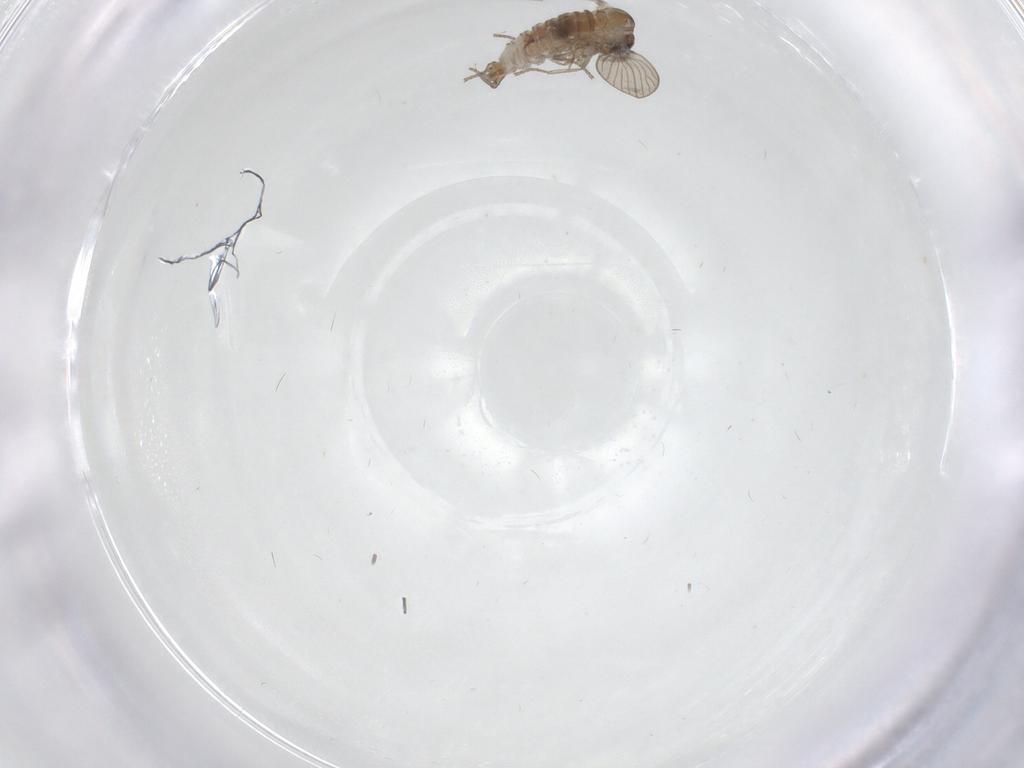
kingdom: Animalia
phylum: Arthropoda
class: Insecta
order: Diptera
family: Psychodidae
